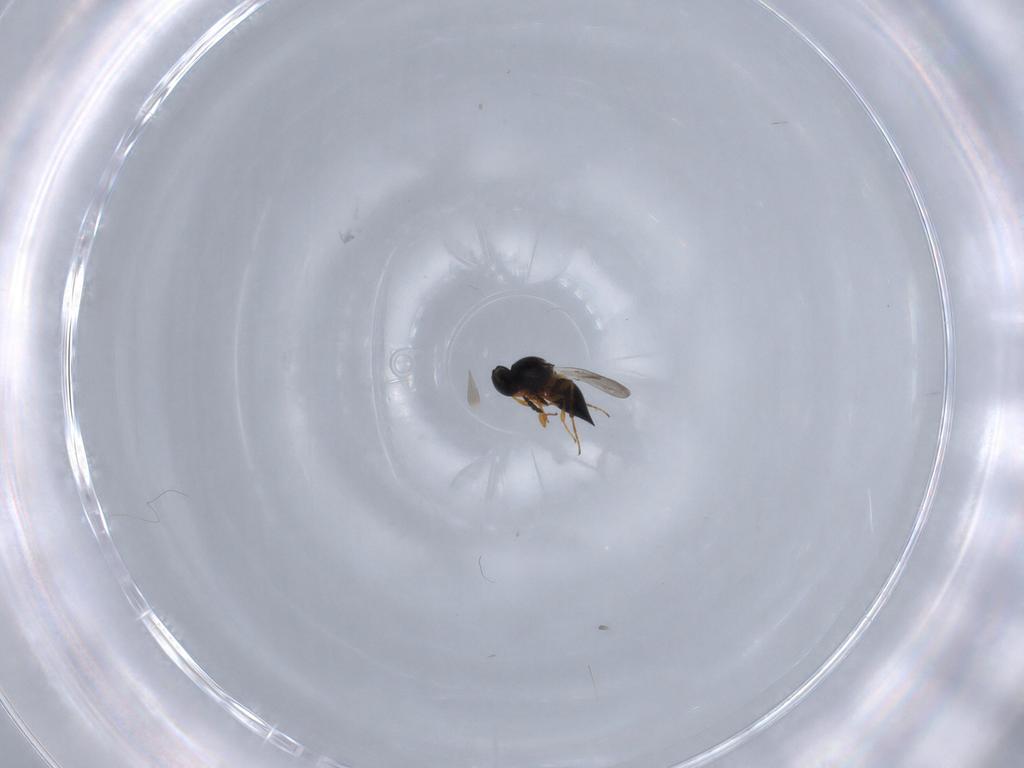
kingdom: Animalia
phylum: Arthropoda
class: Insecta
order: Hymenoptera
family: Platygastridae
